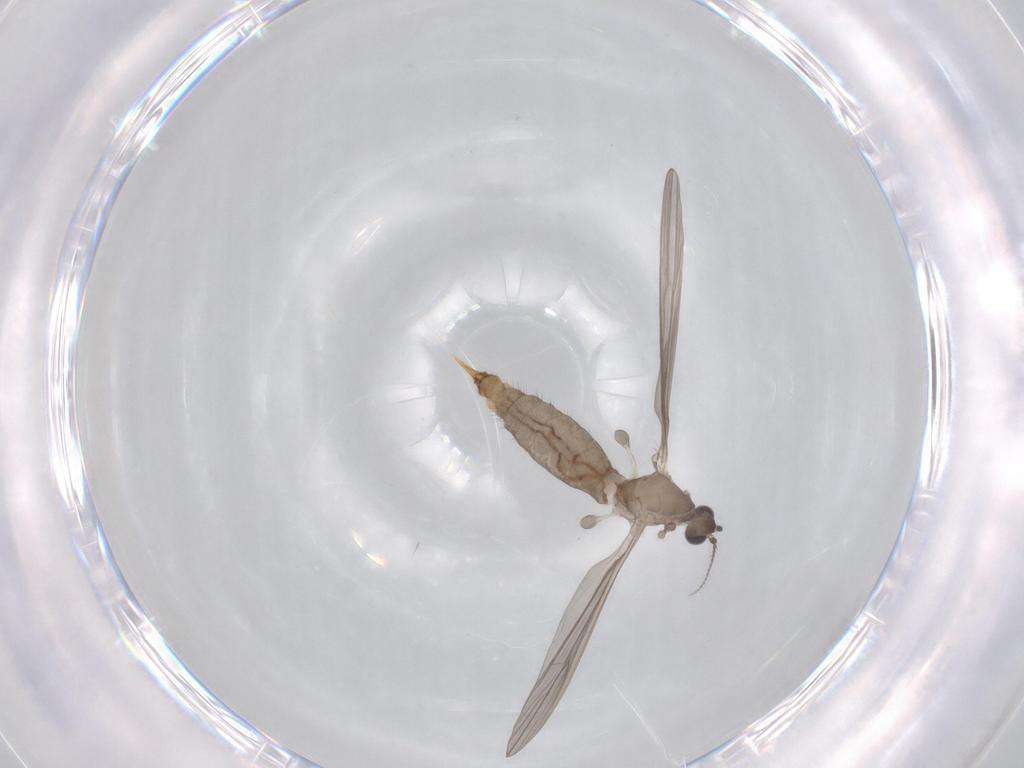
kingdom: Animalia
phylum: Arthropoda
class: Insecta
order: Diptera
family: Limoniidae
